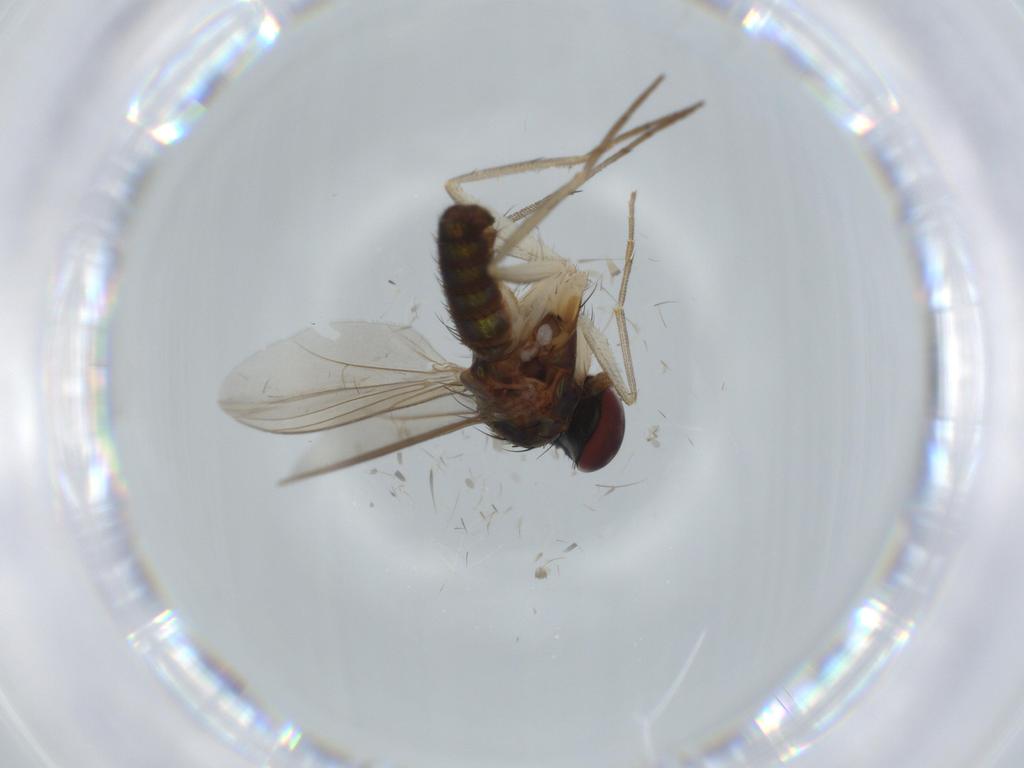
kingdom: Animalia
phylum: Arthropoda
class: Insecta
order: Diptera
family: Dolichopodidae
